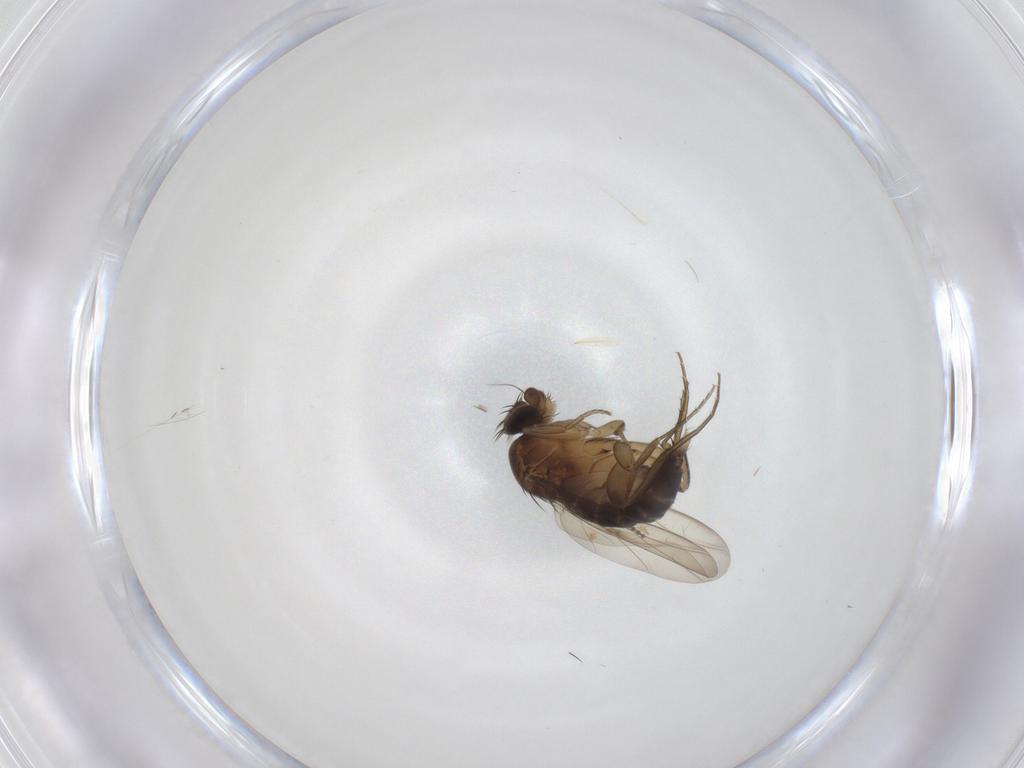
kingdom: Animalia
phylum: Arthropoda
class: Insecta
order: Diptera
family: Phoridae
